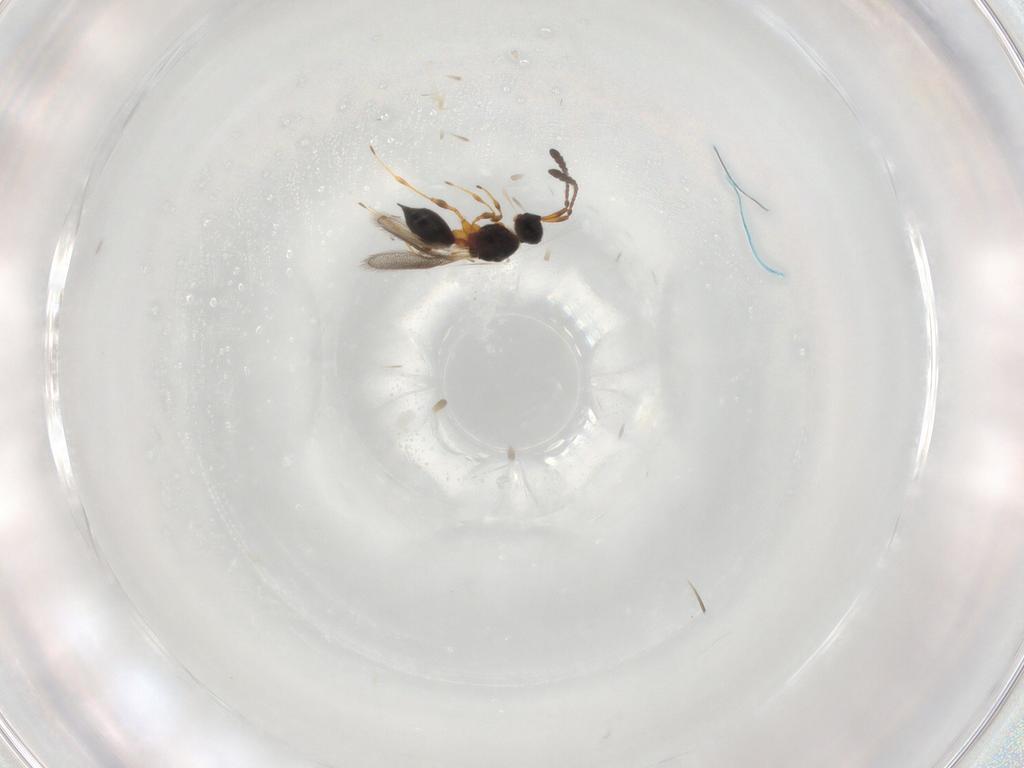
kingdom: Animalia
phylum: Arthropoda
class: Insecta
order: Hymenoptera
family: Diapriidae
